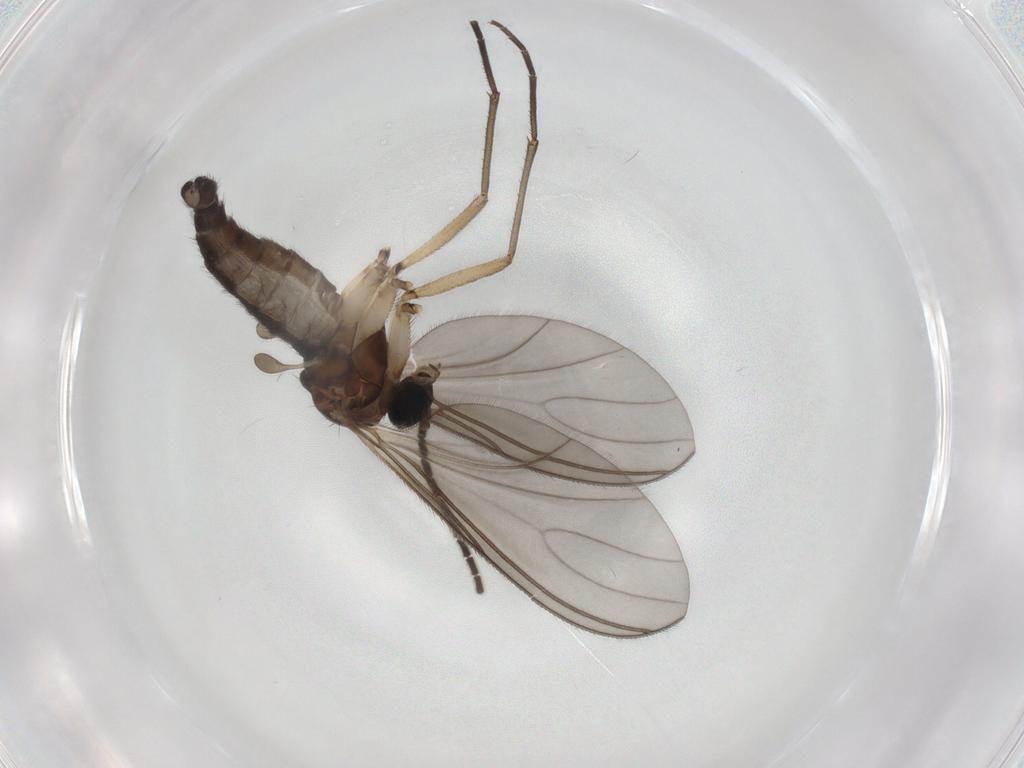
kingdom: Animalia
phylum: Arthropoda
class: Insecta
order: Diptera
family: Sciaridae
